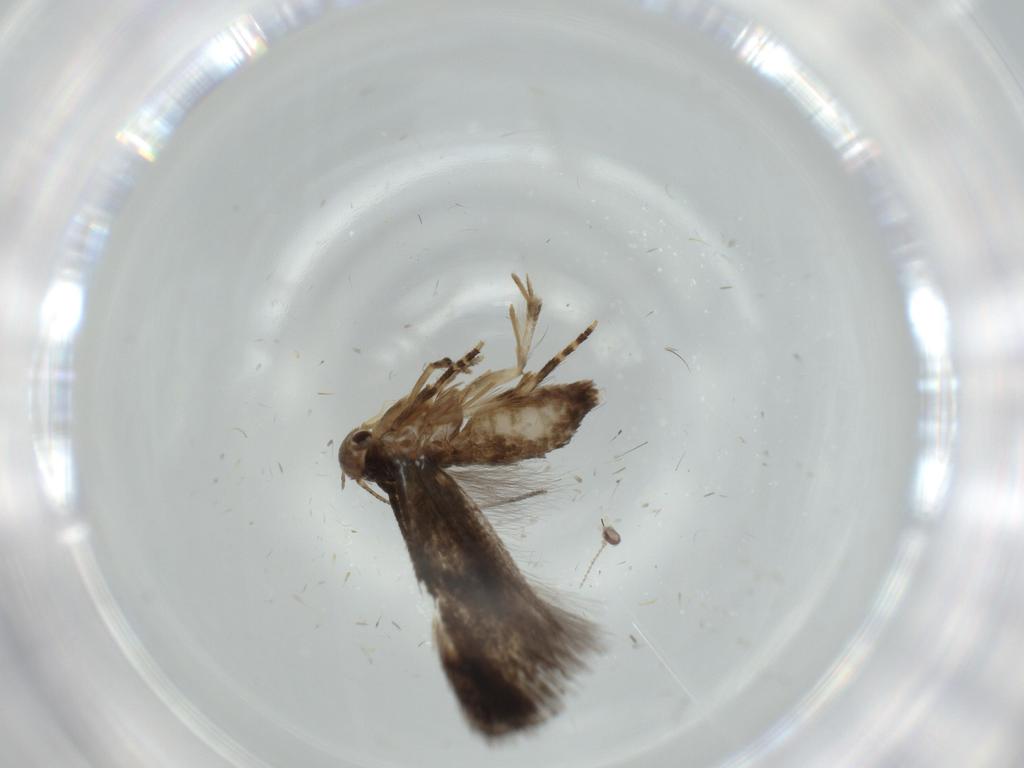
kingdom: Animalia
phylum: Arthropoda
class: Insecta
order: Lepidoptera
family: Gelechiidae
